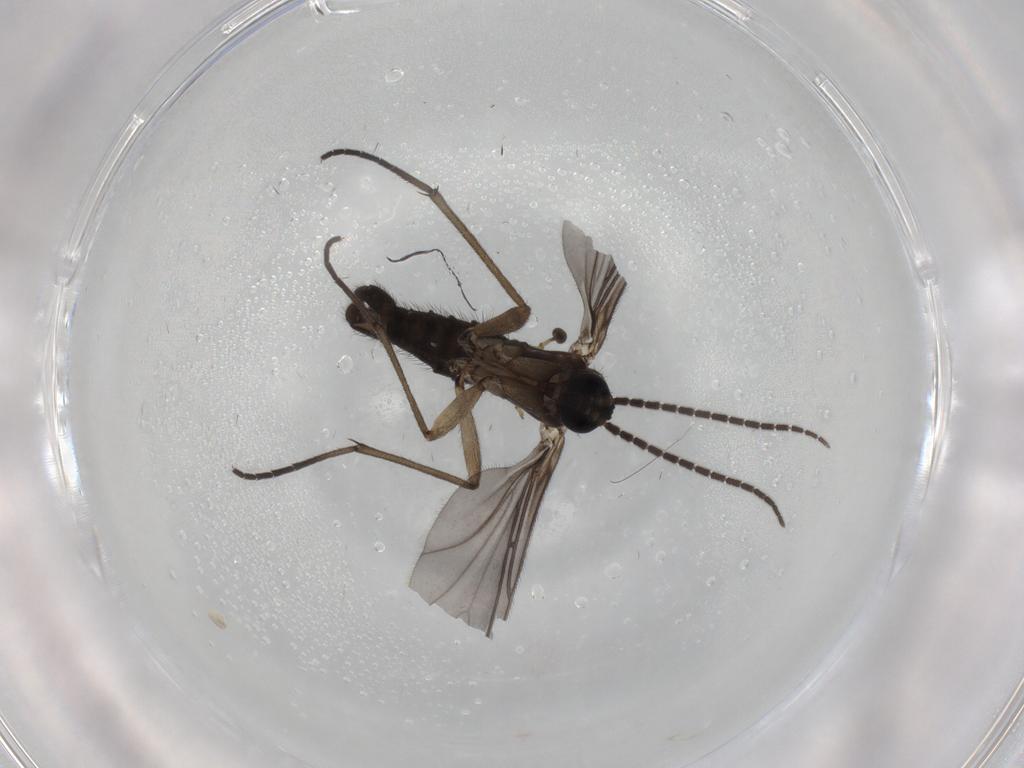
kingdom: Animalia
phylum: Arthropoda
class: Insecta
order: Diptera
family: Sciaridae
